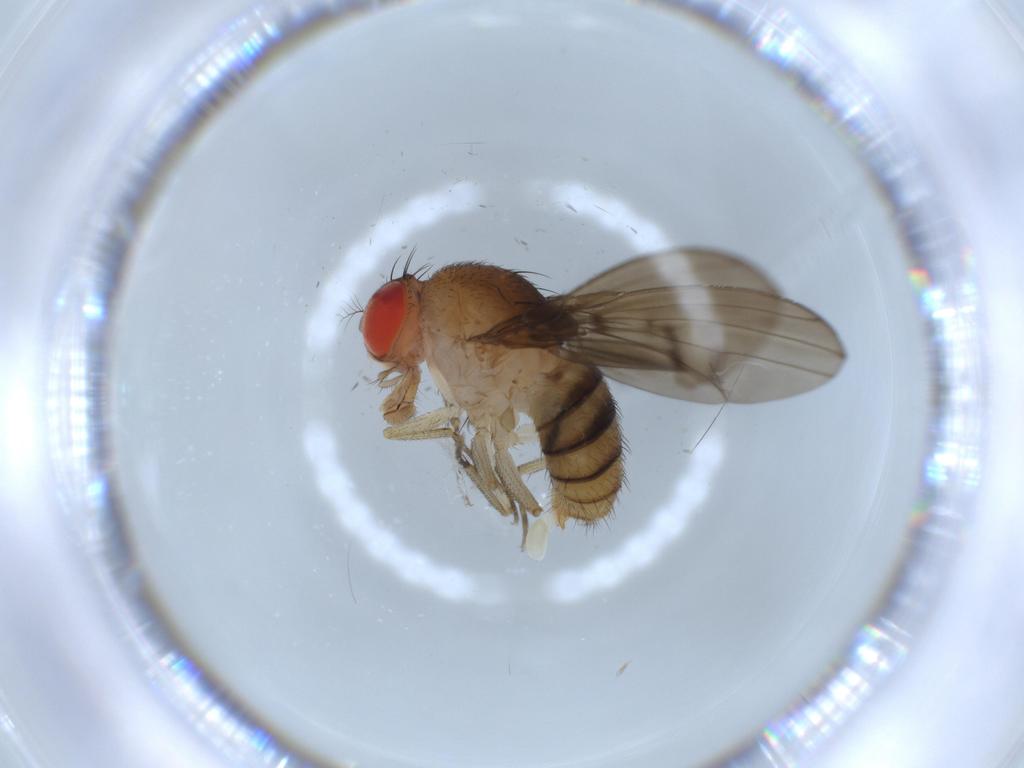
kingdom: Animalia
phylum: Arthropoda
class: Insecta
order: Diptera
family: Drosophilidae
